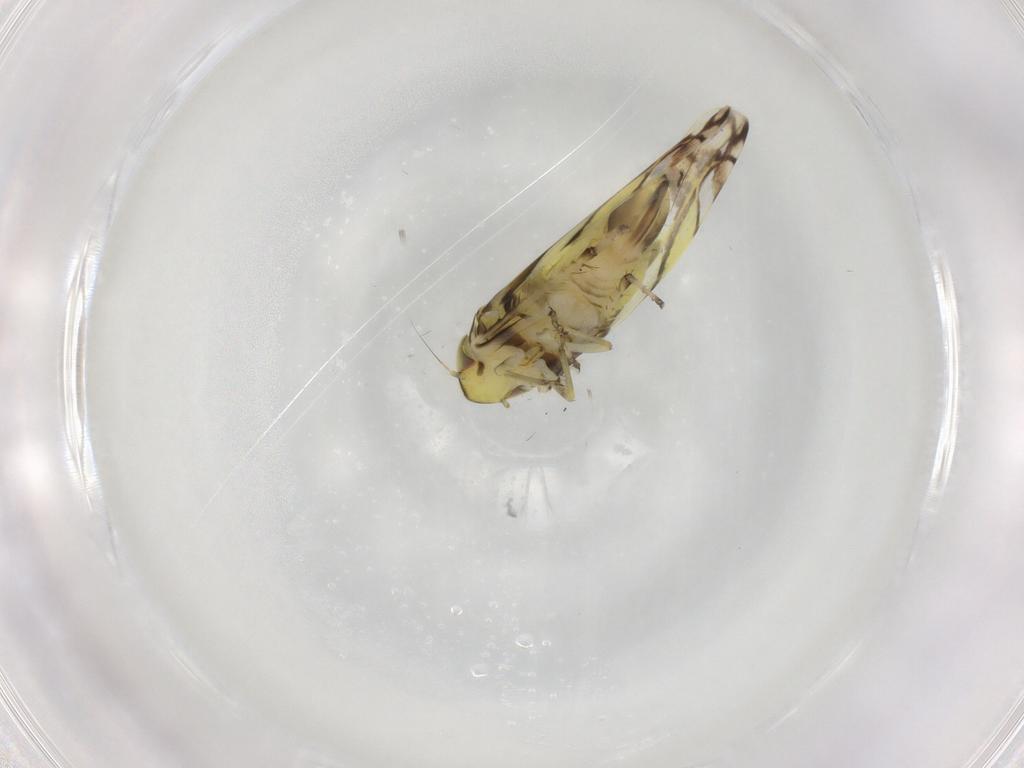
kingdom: Animalia
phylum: Arthropoda
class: Insecta
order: Hemiptera
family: Cicadellidae
